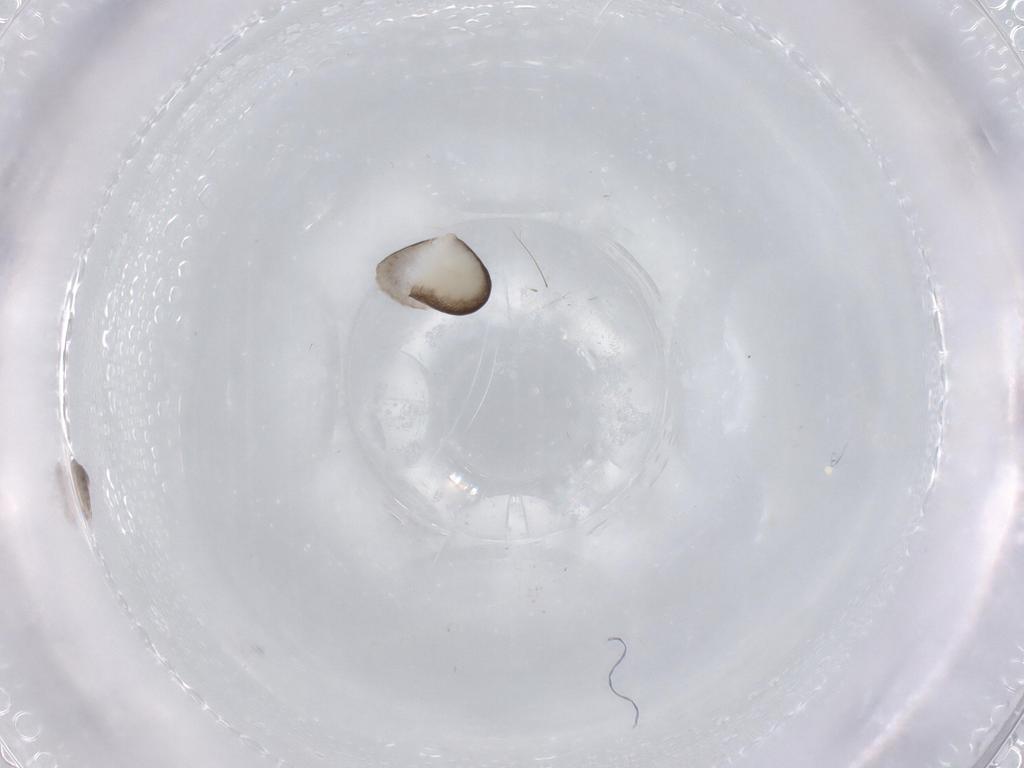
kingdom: Animalia
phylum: Arthropoda
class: Insecta
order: Hymenoptera
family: Dryinidae
